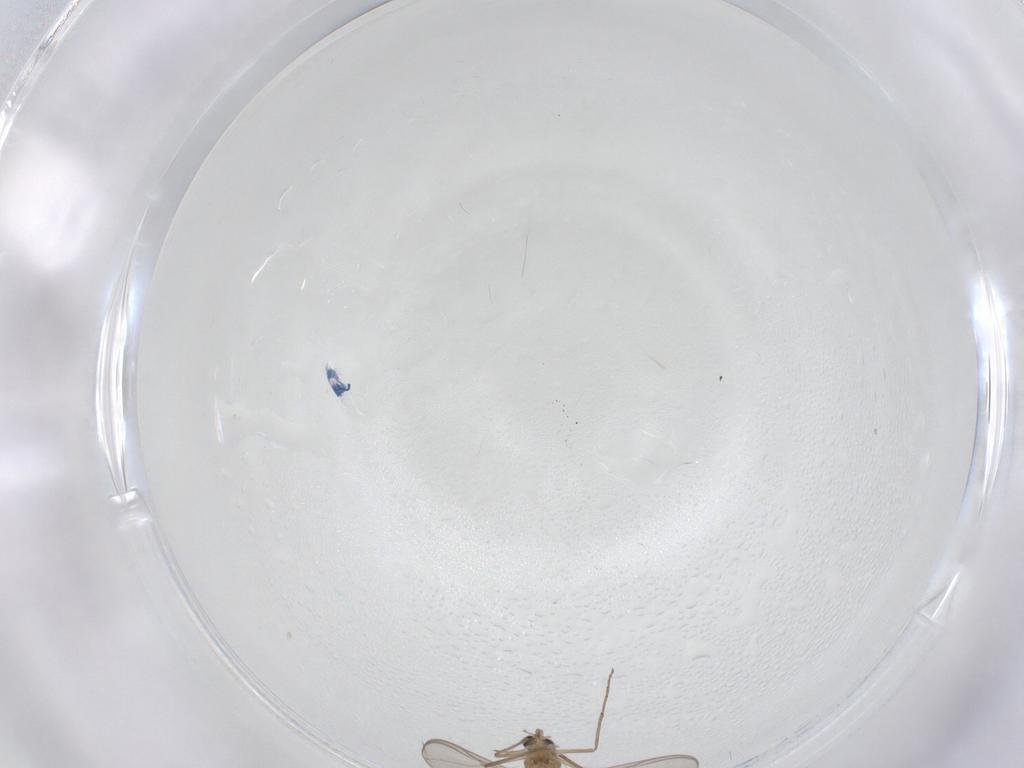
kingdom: Animalia
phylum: Arthropoda
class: Insecta
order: Diptera
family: Chironomidae
